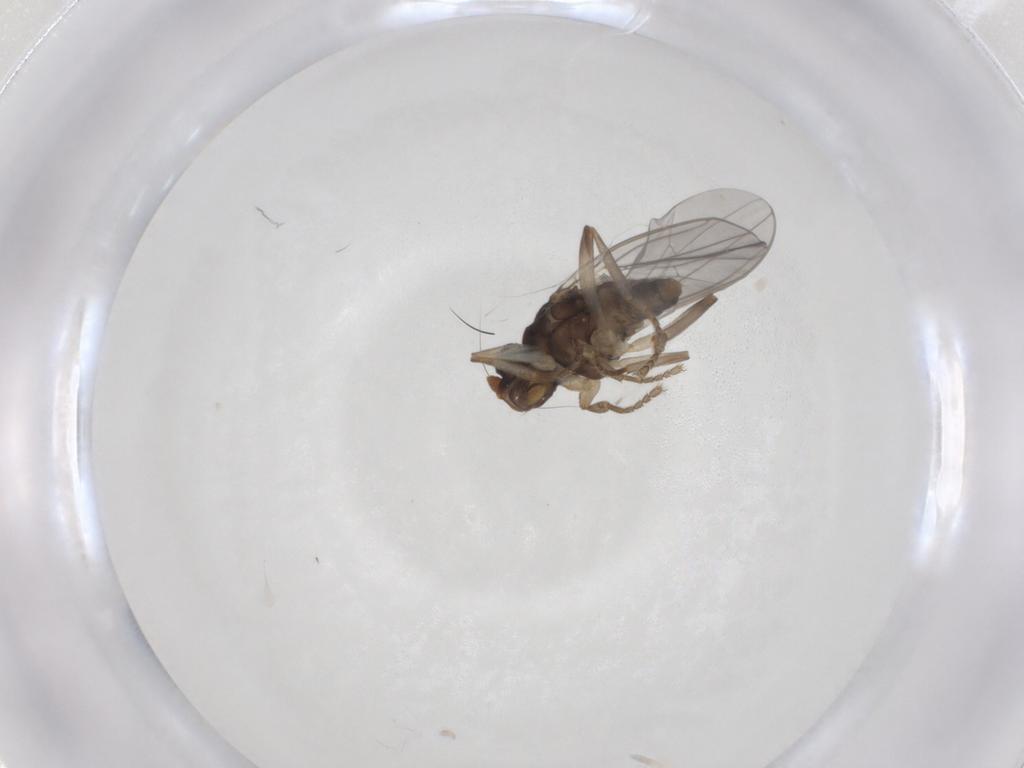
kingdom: Animalia
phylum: Arthropoda
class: Insecta
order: Diptera
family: Sphaeroceridae
